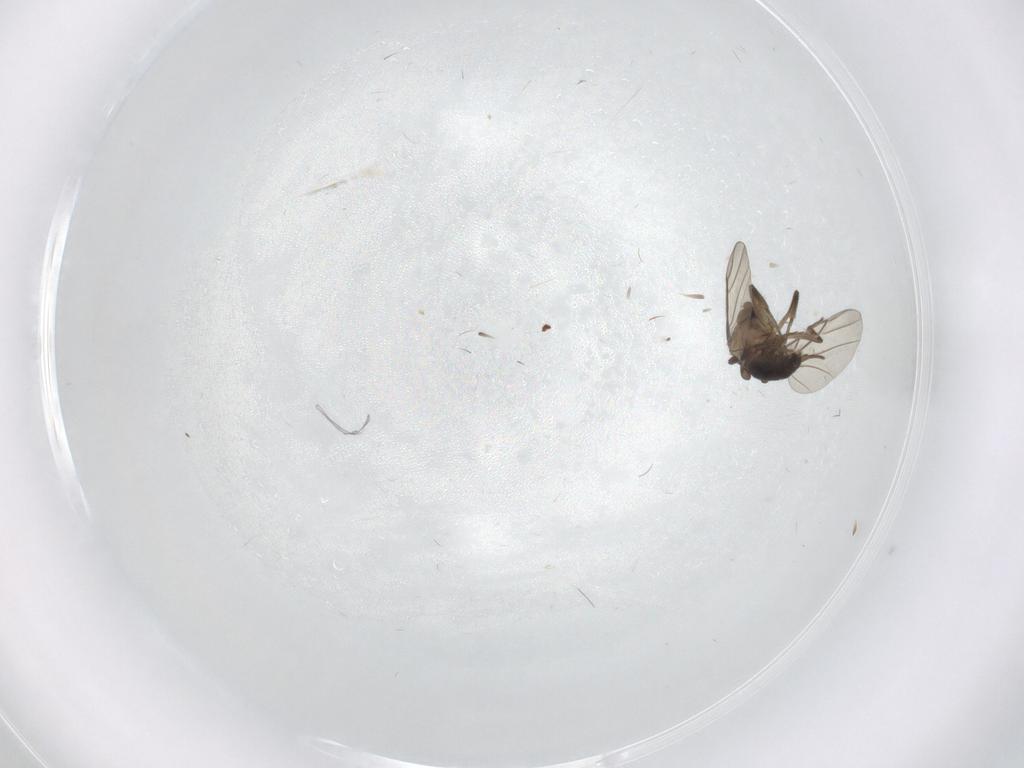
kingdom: Animalia
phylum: Arthropoda
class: Insecta
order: Diptera
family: Phoridae
